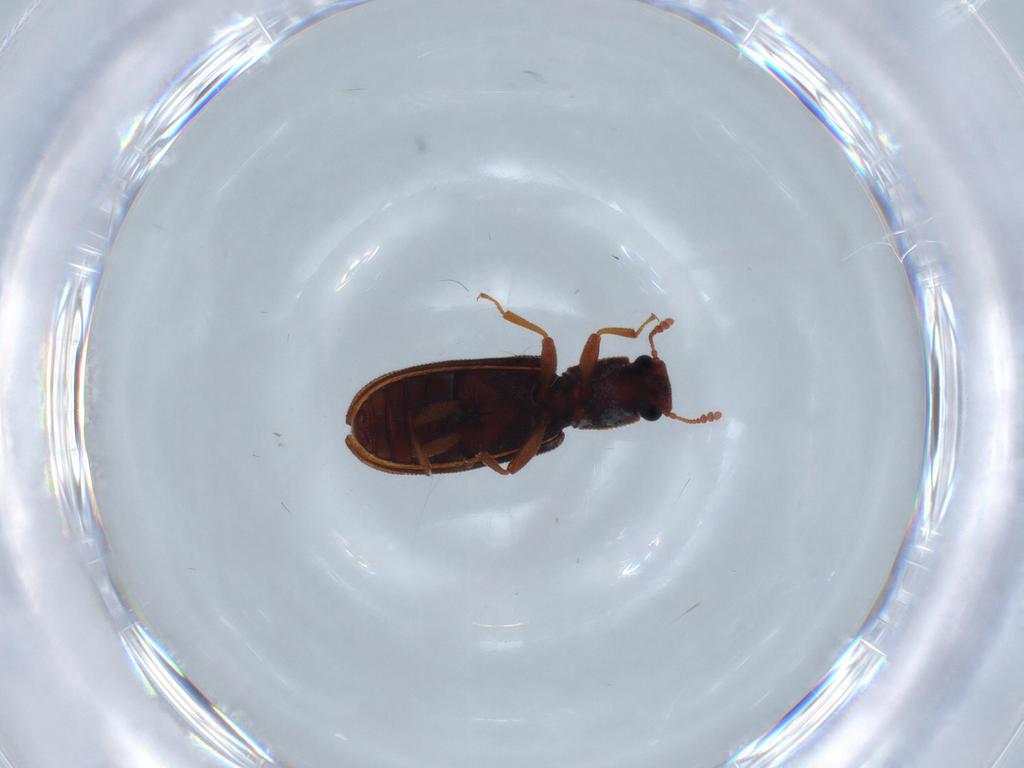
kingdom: Animalia
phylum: Arthropoda
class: Insecta
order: Coleoptera
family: Zopheridae
